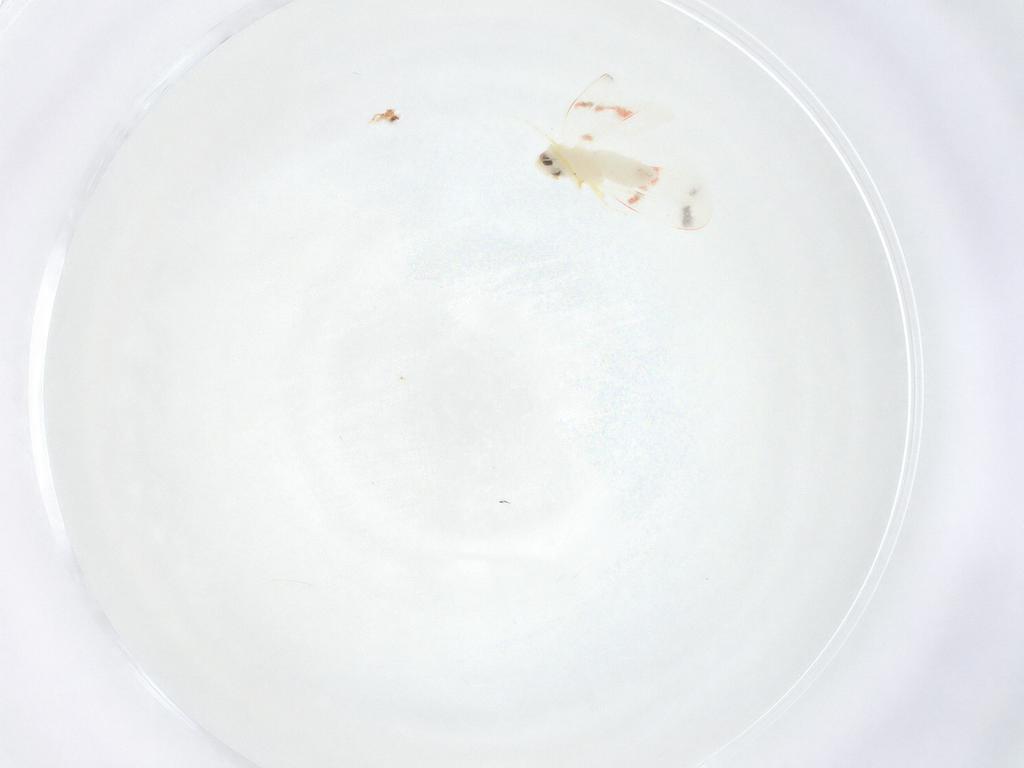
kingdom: Animalia
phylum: Arthropoda
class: Insecta
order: Hemiptera
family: Aleyrodidae
